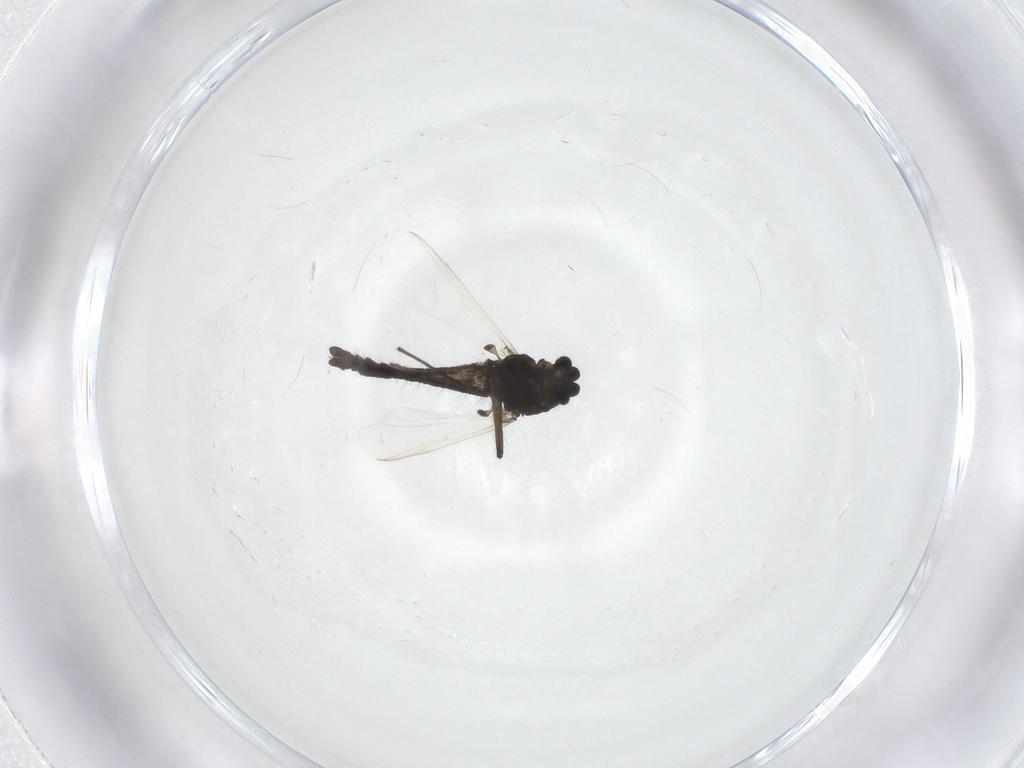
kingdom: Animalia
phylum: Arthropoda
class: Insecta
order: Diptera
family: Chironomidae
